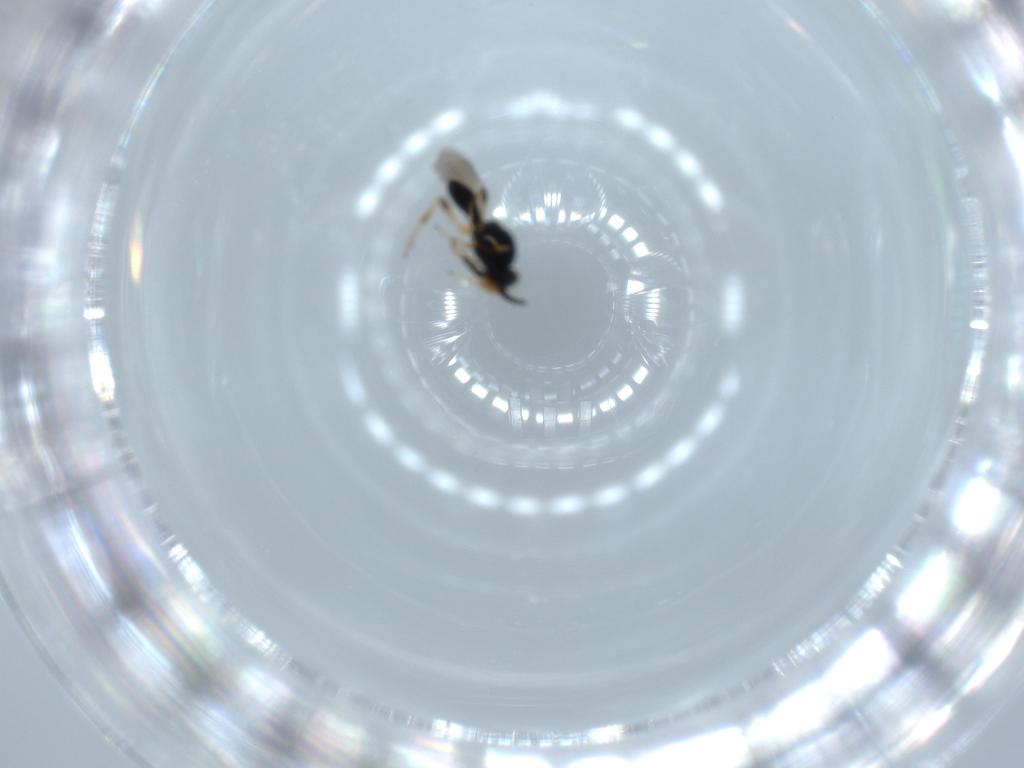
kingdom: Animalia
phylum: Arthropoda
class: Insecta
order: Hymenoptera
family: Platygastridae
